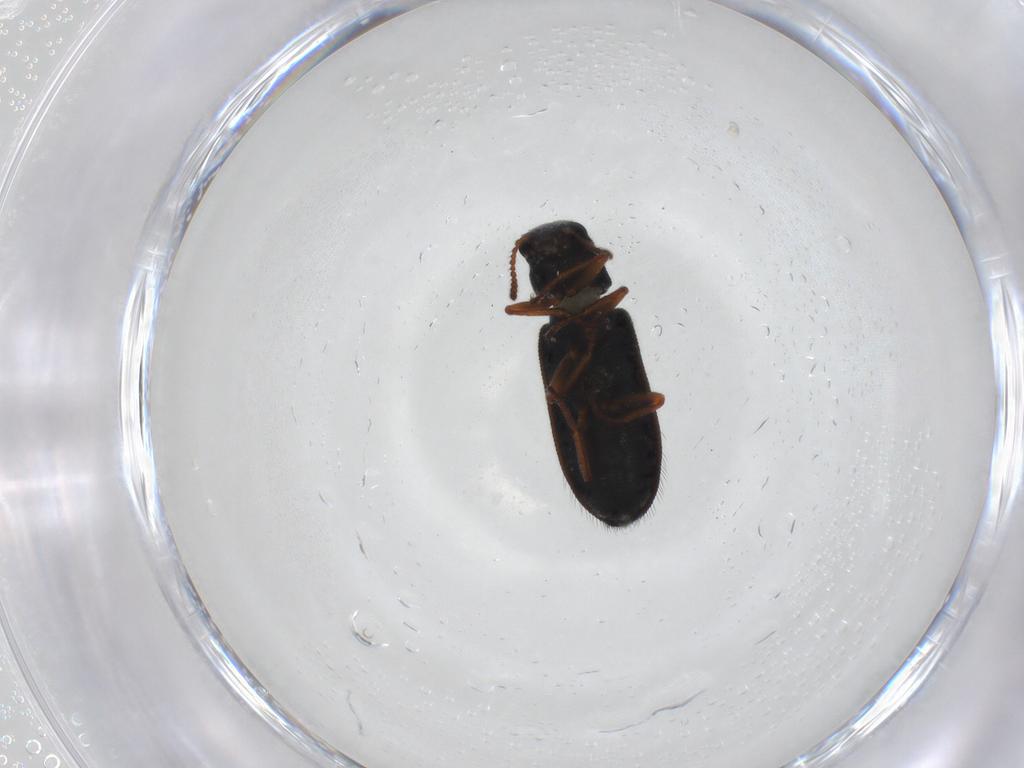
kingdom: Animalia
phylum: Arthropoda
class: Insecta
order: Coleoptera
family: Melyridae
